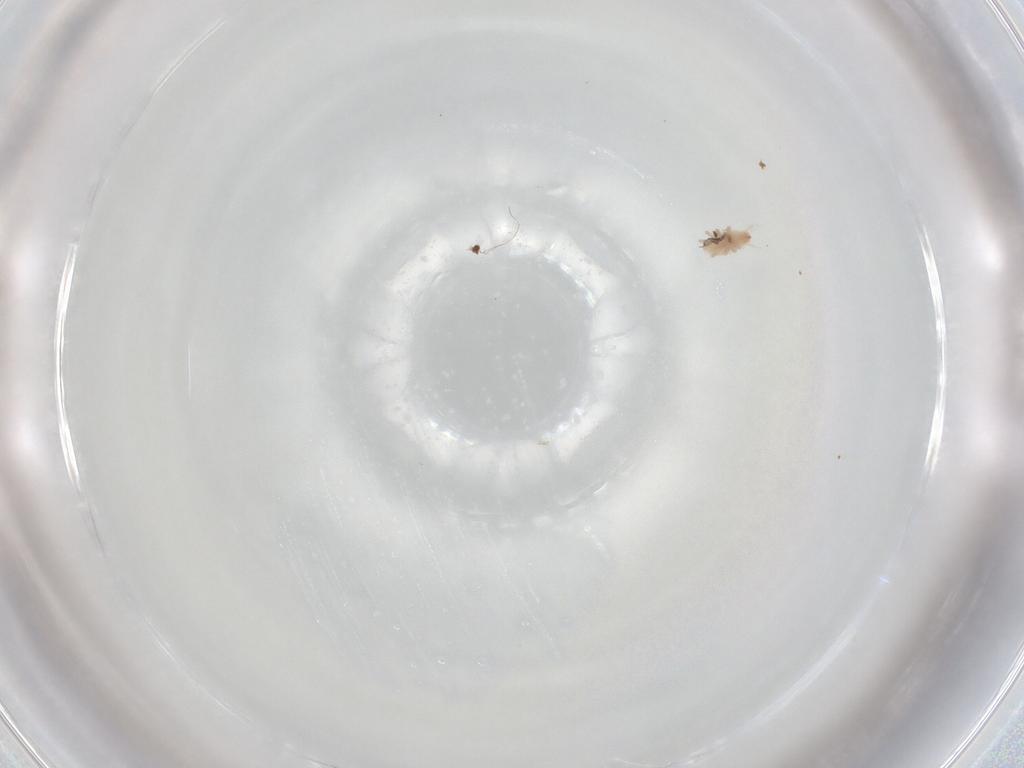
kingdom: Animalia
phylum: Arthropoda
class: Arachnida
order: Trombidiformes
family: Bdellidae
